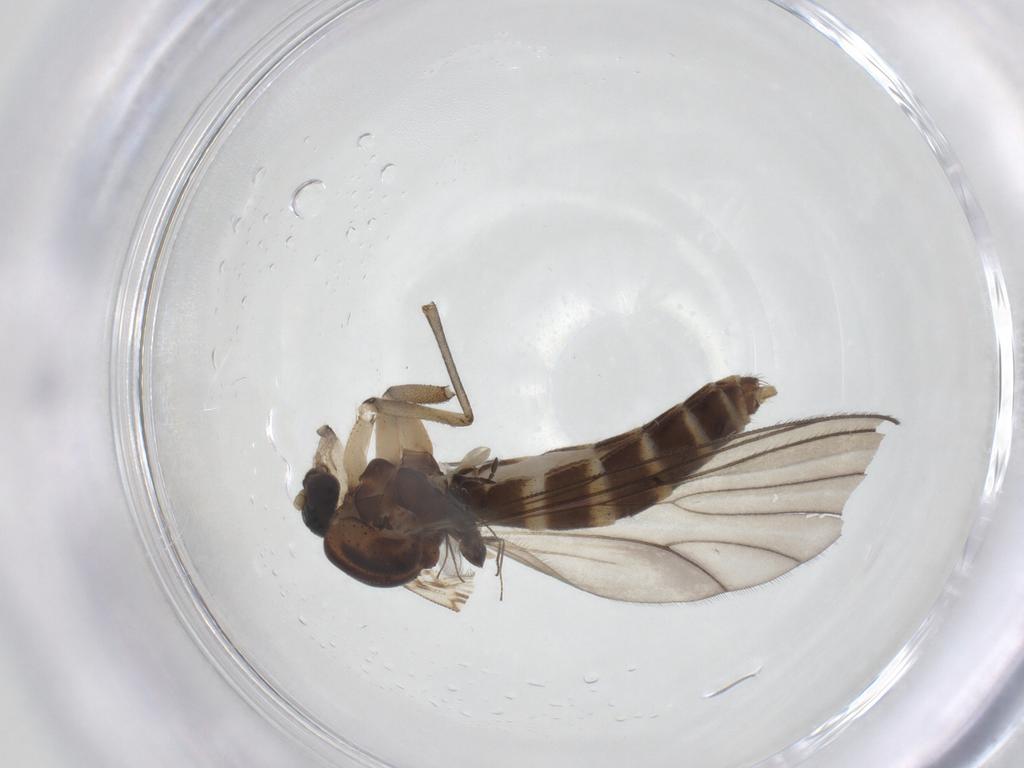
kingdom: Animalia
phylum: Arthropoda
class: Insecta
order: Diptera
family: Mycetophilidae
